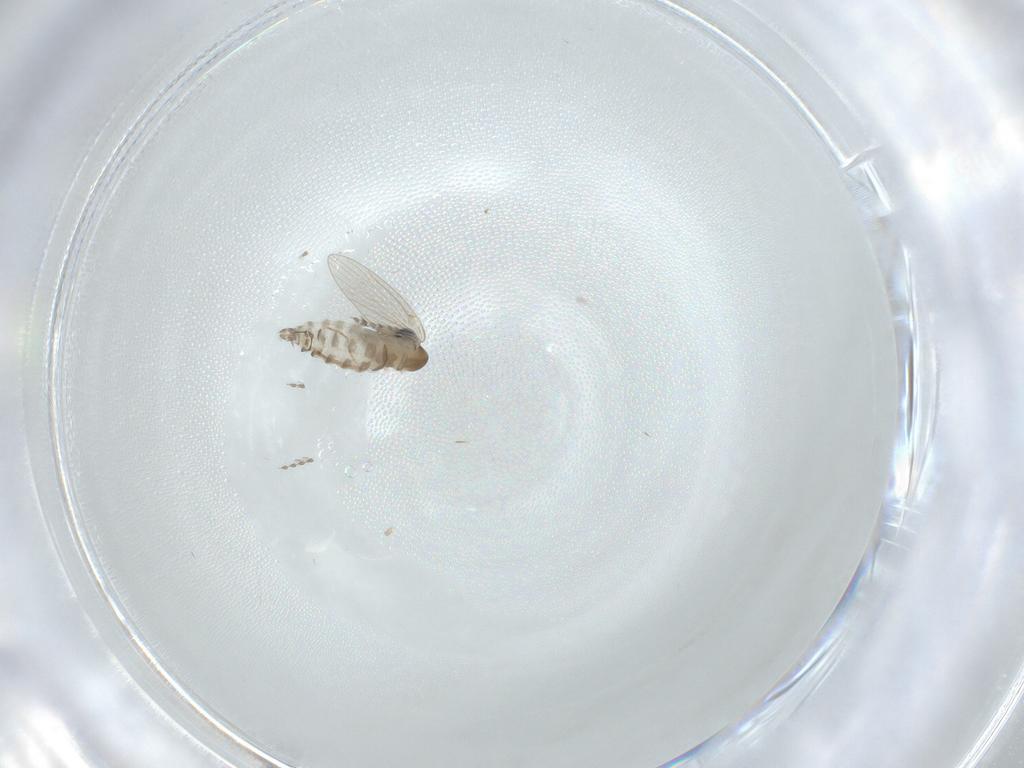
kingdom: Animalia
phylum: Arthropoda
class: Insecta
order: Diptera
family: Psychodidae
